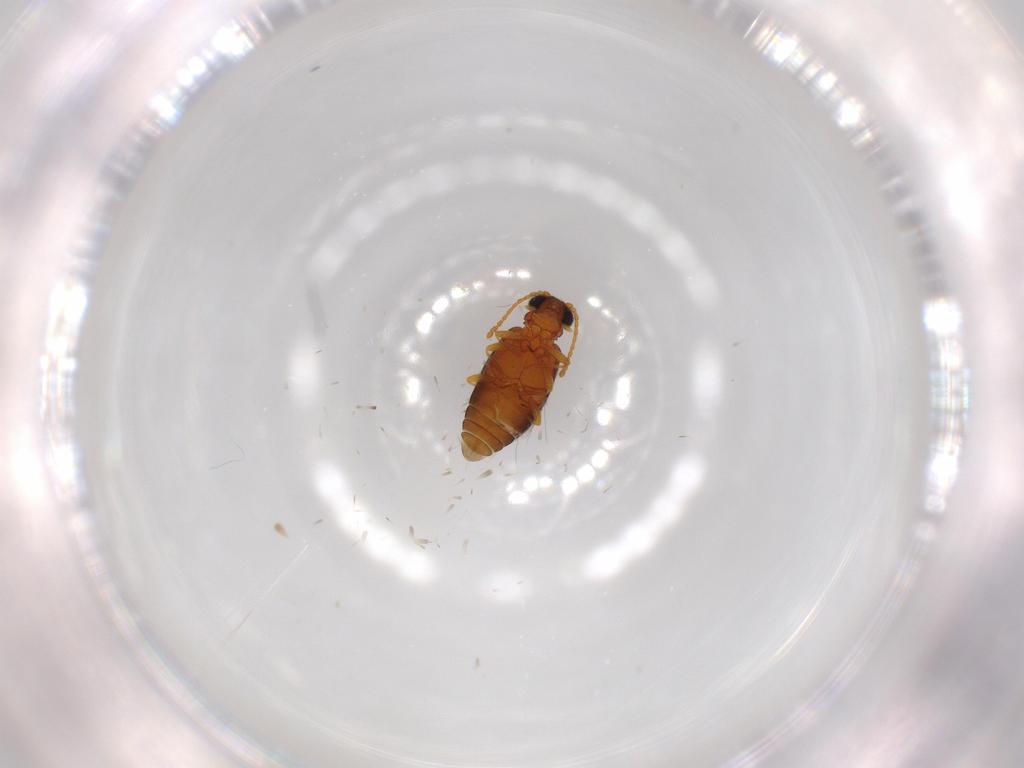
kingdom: Animalia
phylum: Arthropoda
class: Insecta
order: Coleoptera
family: Aderidae
